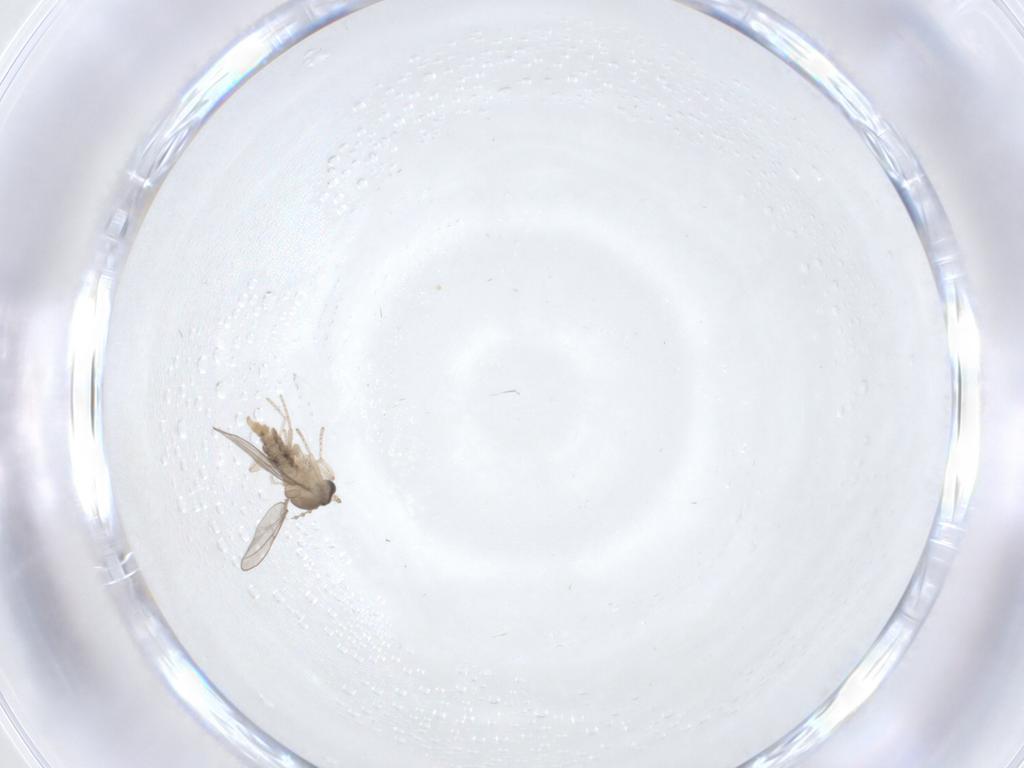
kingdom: Animalia
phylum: Arthropoda
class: Insecta
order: Diptera
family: Cecidomyiidae
